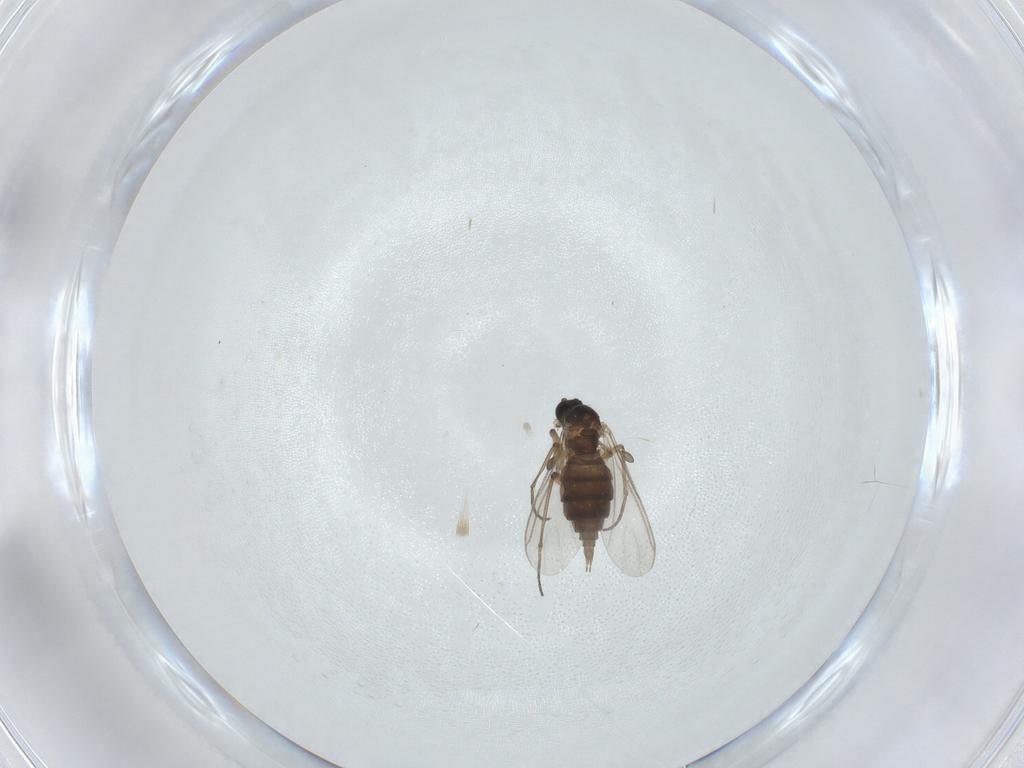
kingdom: Animalia
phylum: Arthropoda
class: Insecta
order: Diptera
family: Sciaridae
